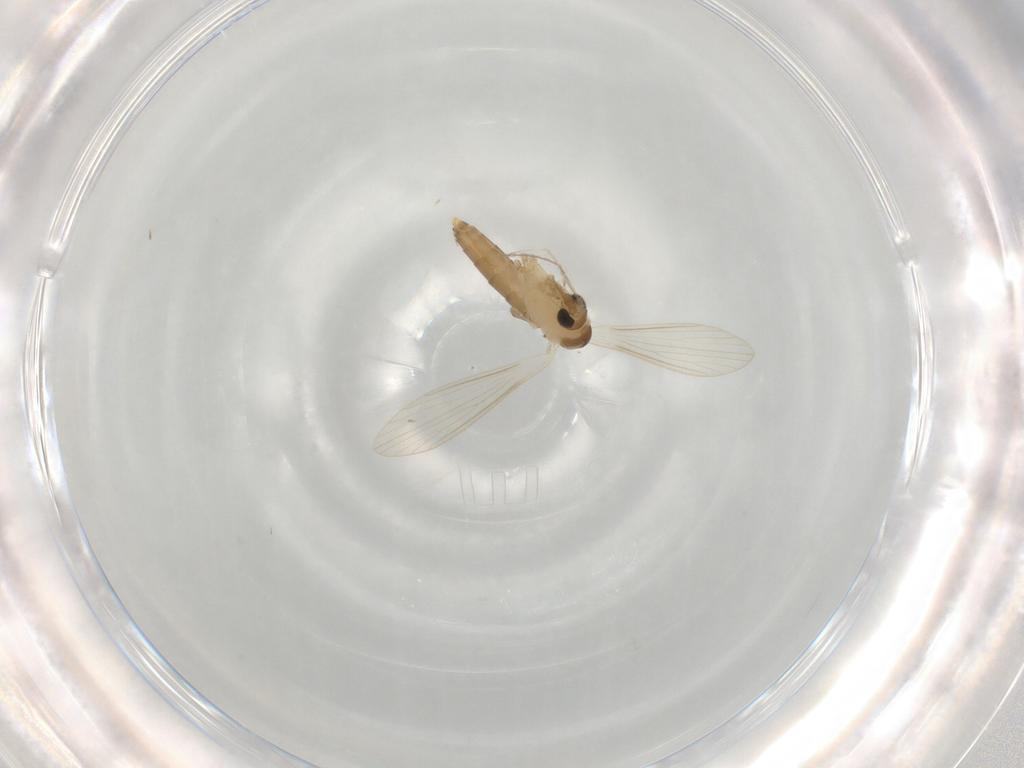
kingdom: Animalia
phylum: Arthropoda
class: Insecta
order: Diptera
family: Psychodidae
